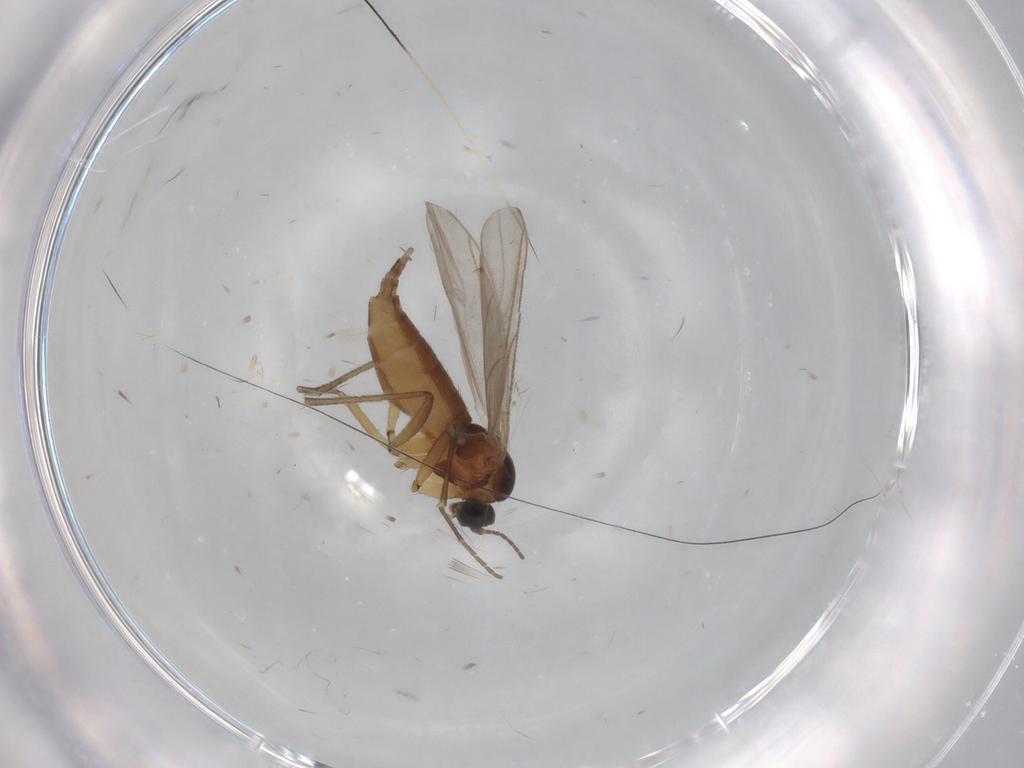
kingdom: Animalia
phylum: Arthropoda
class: Insecta
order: Diptera
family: Sciaridae
